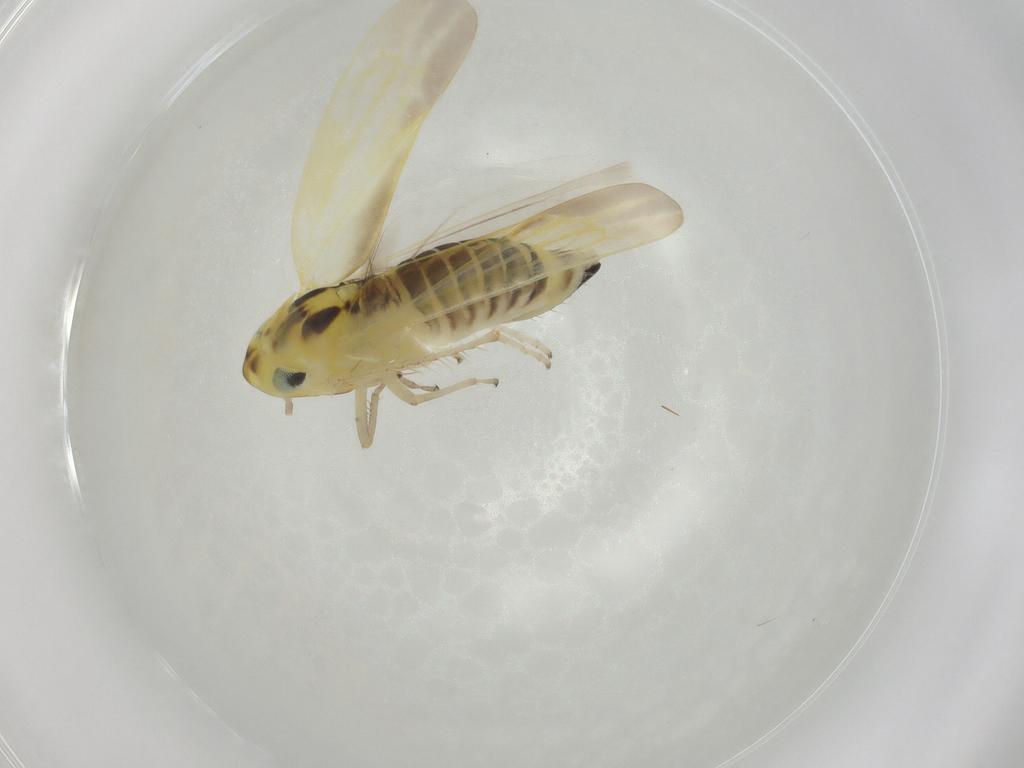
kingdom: Animalia
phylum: Arthropoda
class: Insecta
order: Hemiptera
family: Cicadellidae
